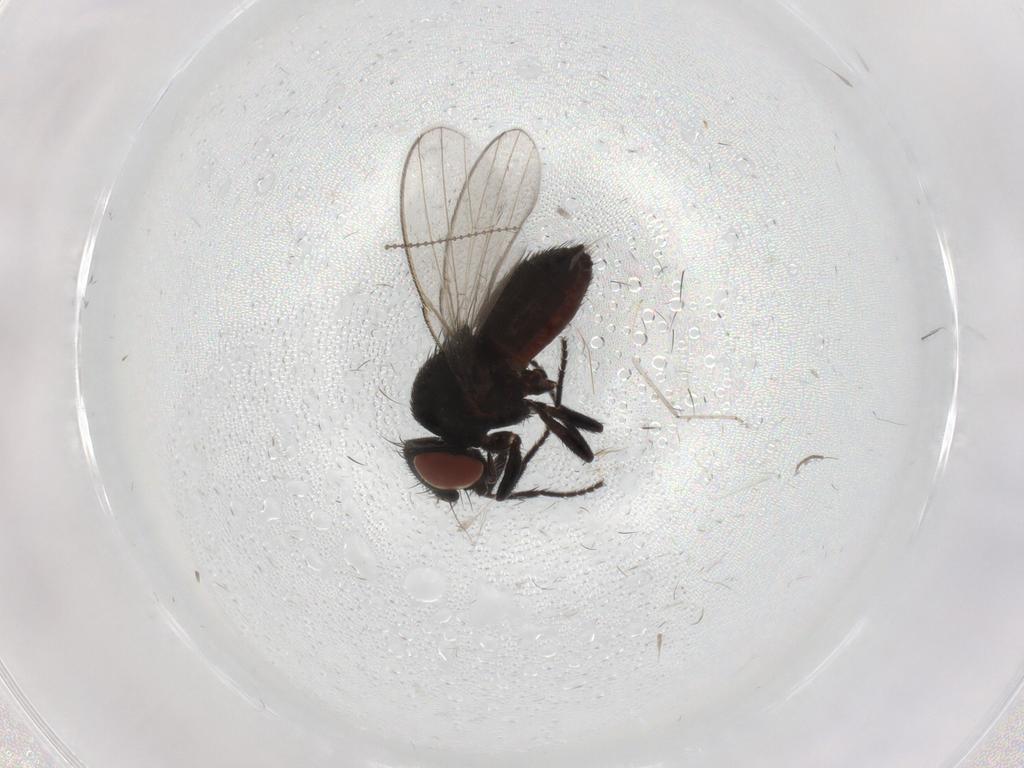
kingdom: Animalia
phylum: Arthropoda
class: Insecta
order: Diptera
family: Milichiidae
